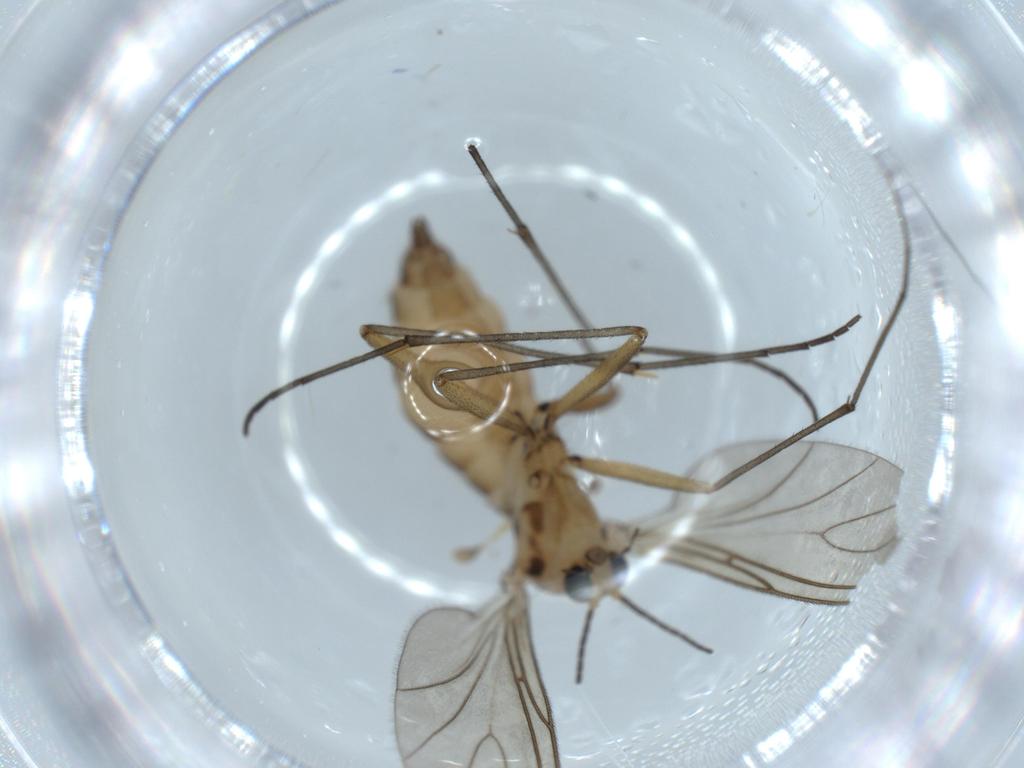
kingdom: Animalia
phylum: Arthropoda
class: Insecta
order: Diptera
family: Sciaridae
